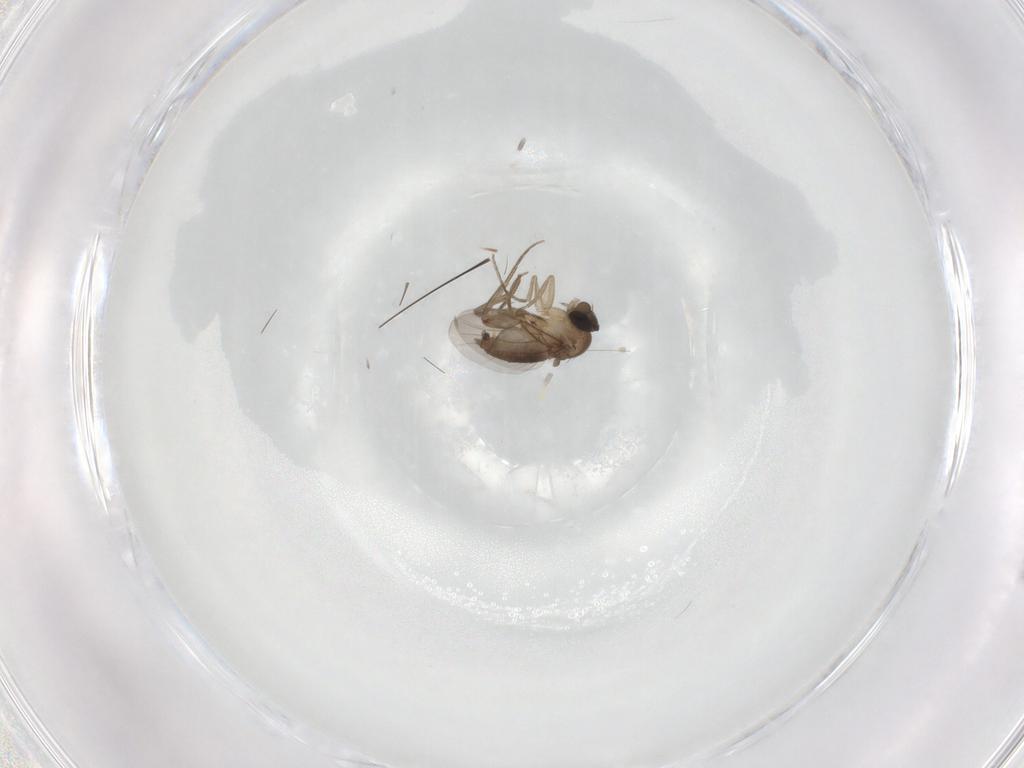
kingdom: Animalia
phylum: Arthropoda
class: Insecta
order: Diptera
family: Phoridae
